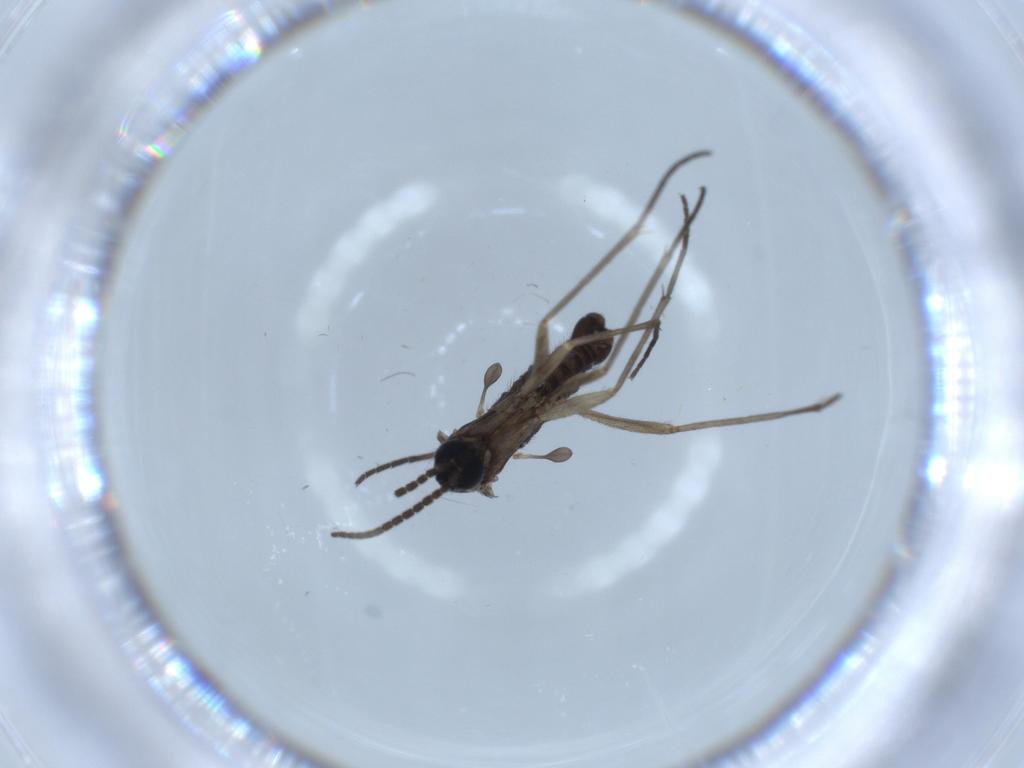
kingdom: Animalia
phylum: Arthropoda
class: Insecta
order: Diptera
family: Sciaridae
